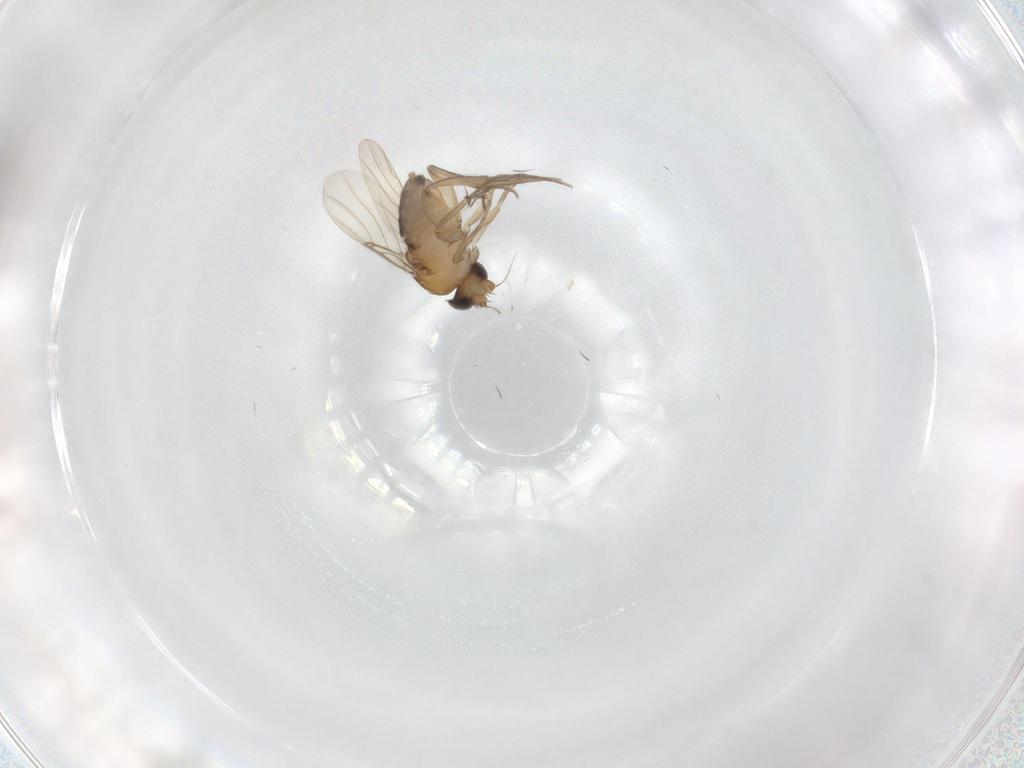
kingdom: Animalia
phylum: Arthropoda
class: Insecta
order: Diptera
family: Phoridae
